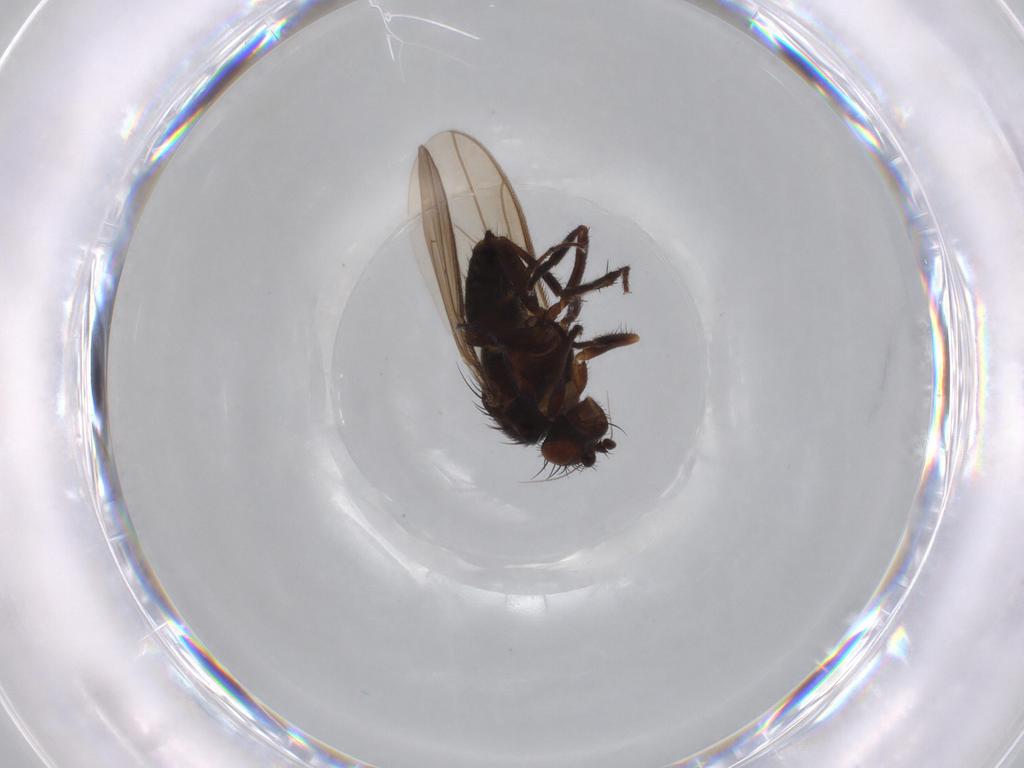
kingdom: Animalia
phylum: Arthropoda
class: Insecta
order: Diptera
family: Sphaeroceridae
